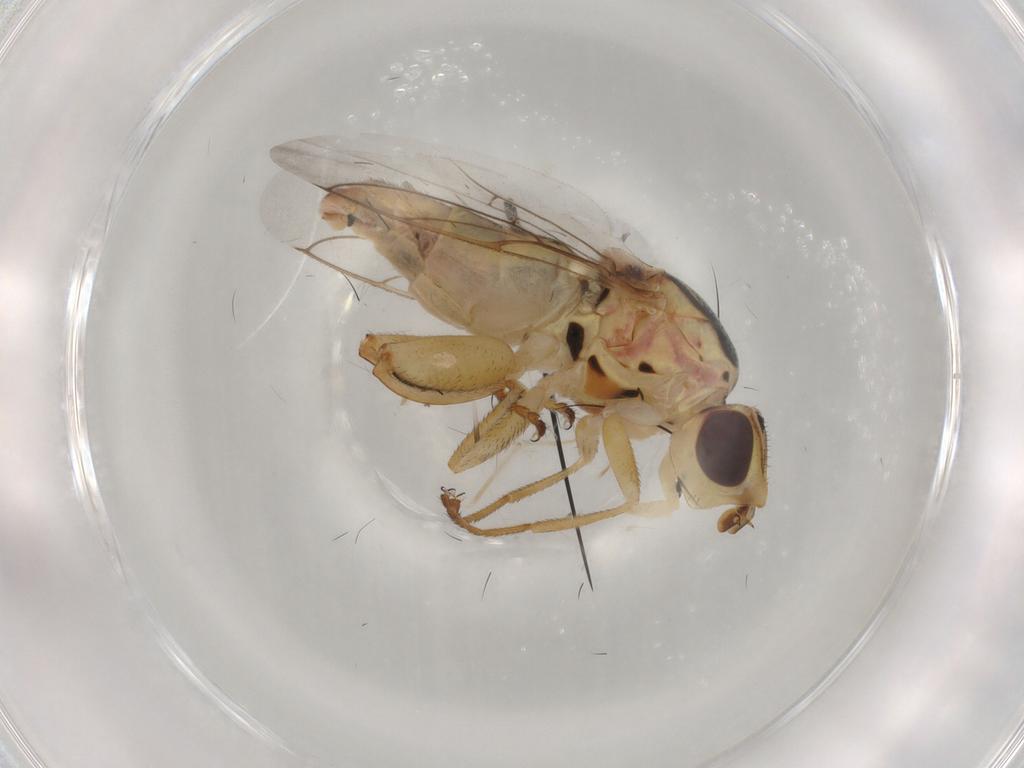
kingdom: Animalia
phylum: Arthropoda
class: Insecta
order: Diptera
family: Chloropidae
